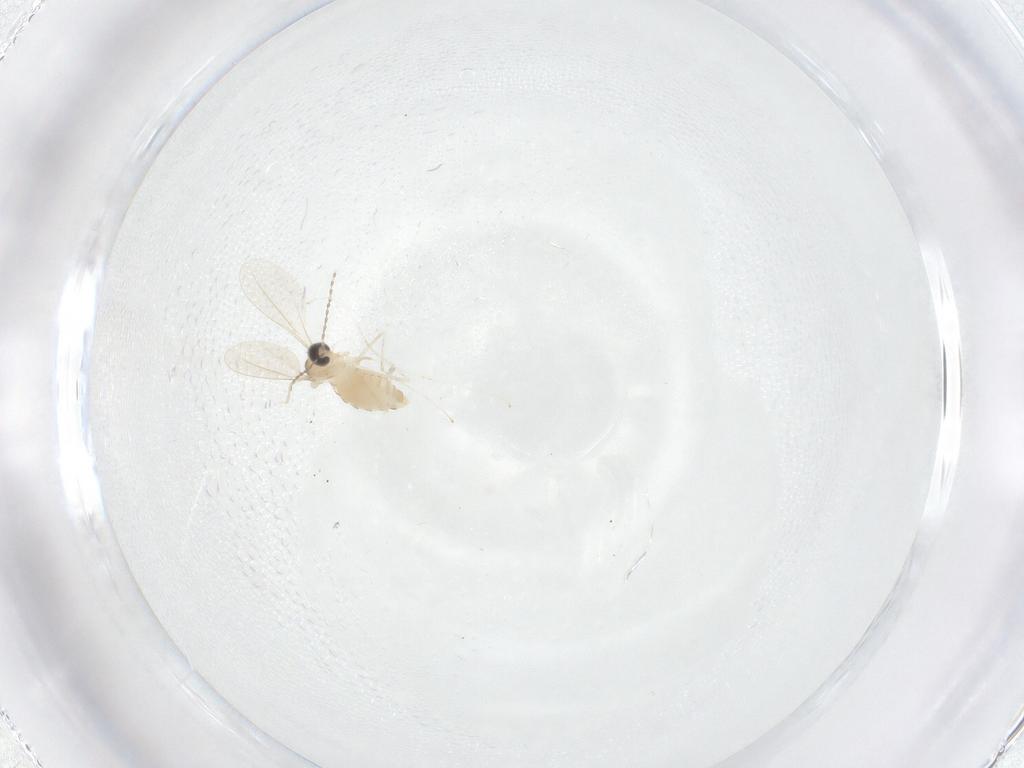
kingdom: Animalia
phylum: Arthropoda
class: Insecta
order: Diptera
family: Cecidomyiidae
